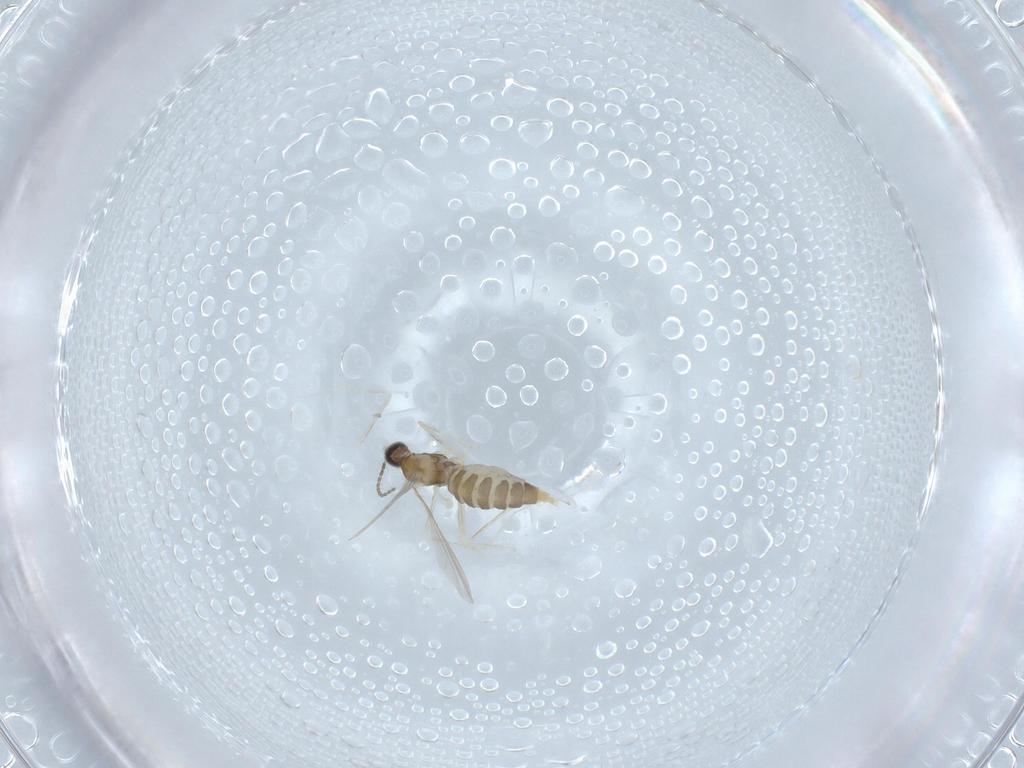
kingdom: Animalia
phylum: Arthropoda
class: Insecta
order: Diptera
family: Cecidomyiidae
